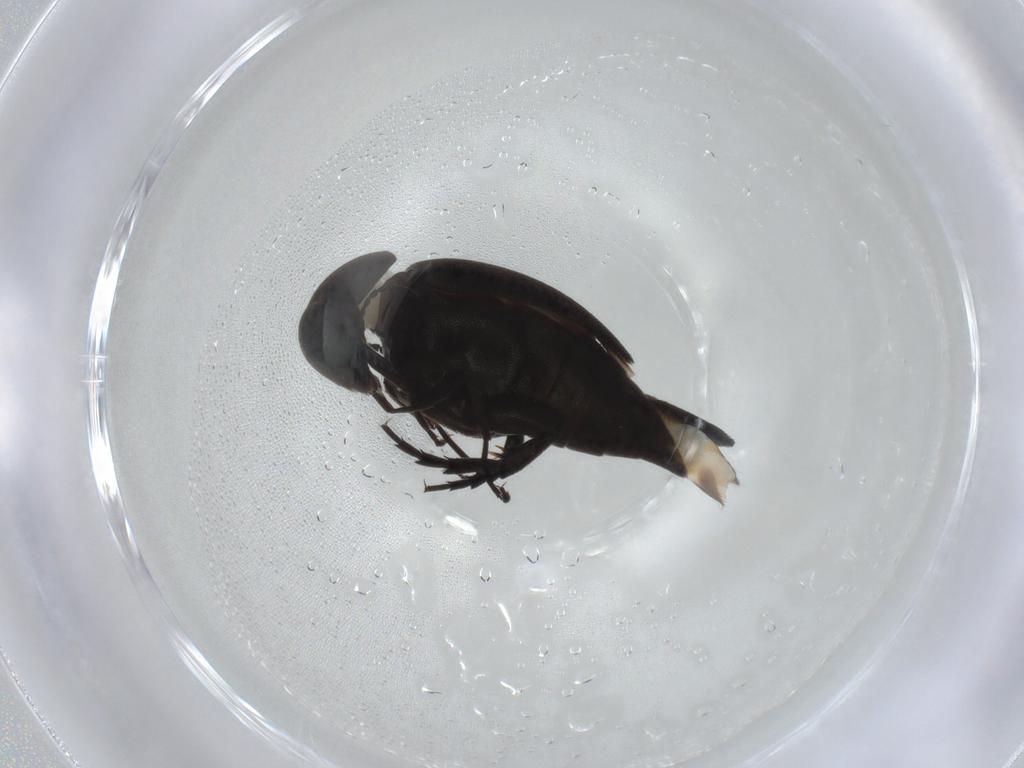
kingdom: Animalia
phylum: Arthropoda
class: Insecta
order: Coleoptera
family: Mordellidae
